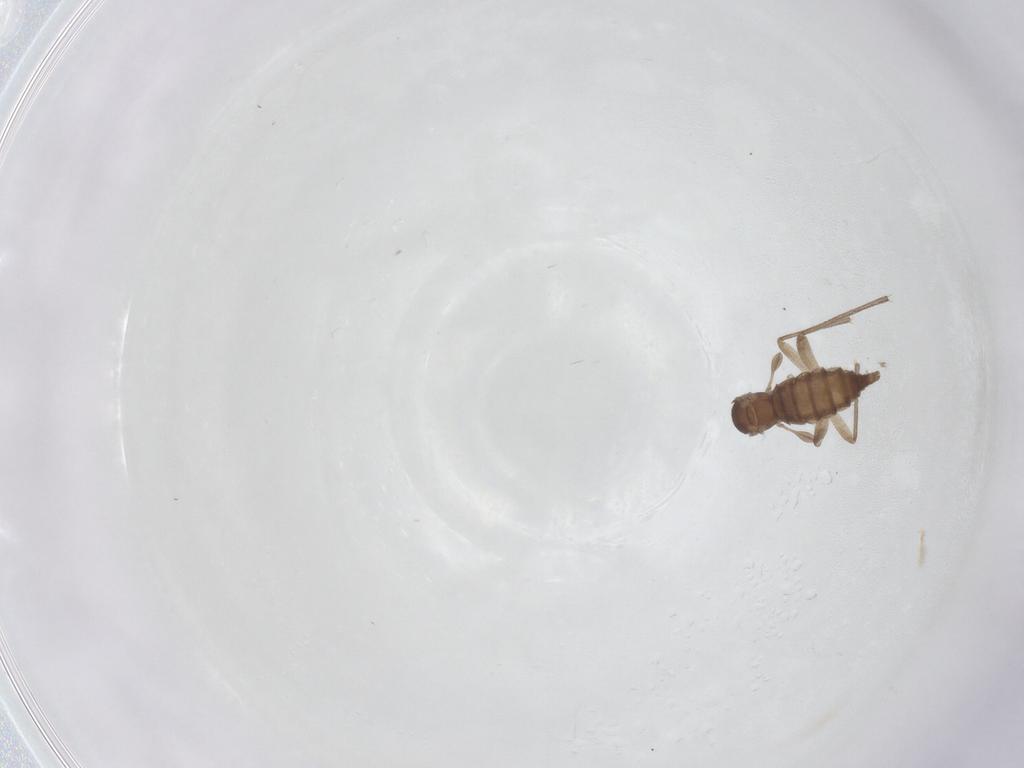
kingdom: Animalia
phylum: Arthropoda
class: Insecta
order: Diptera
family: Sciaridae
